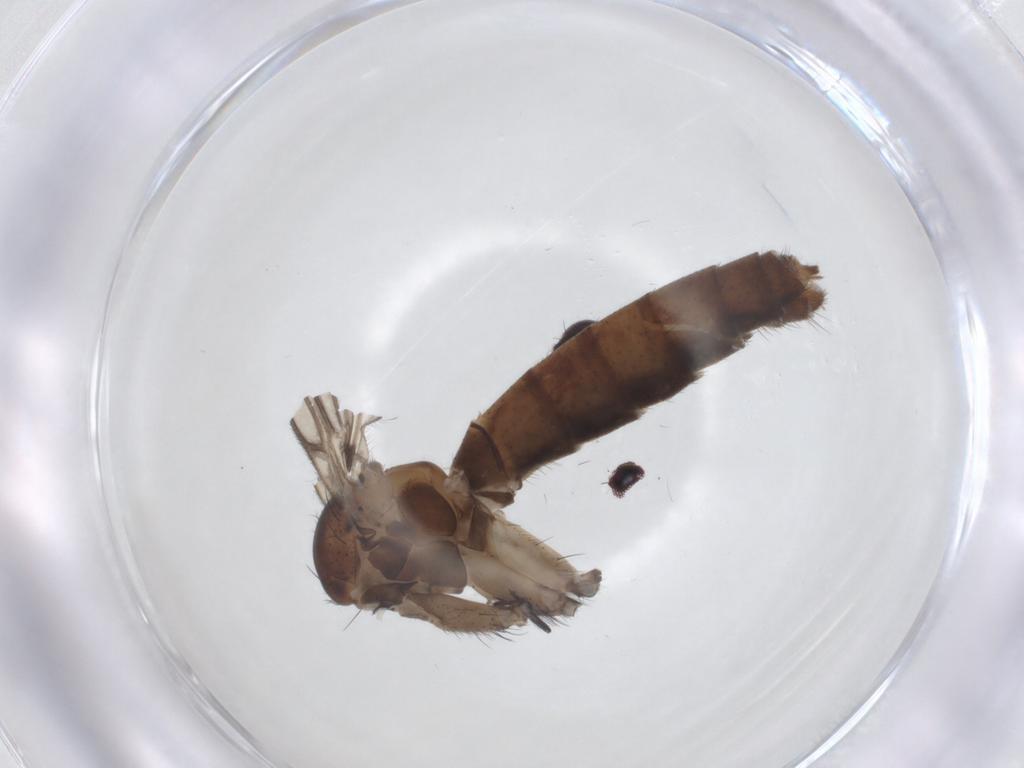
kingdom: Animalia
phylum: Arthropoda
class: Insecta
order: Diptera
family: Mycetophilidae
